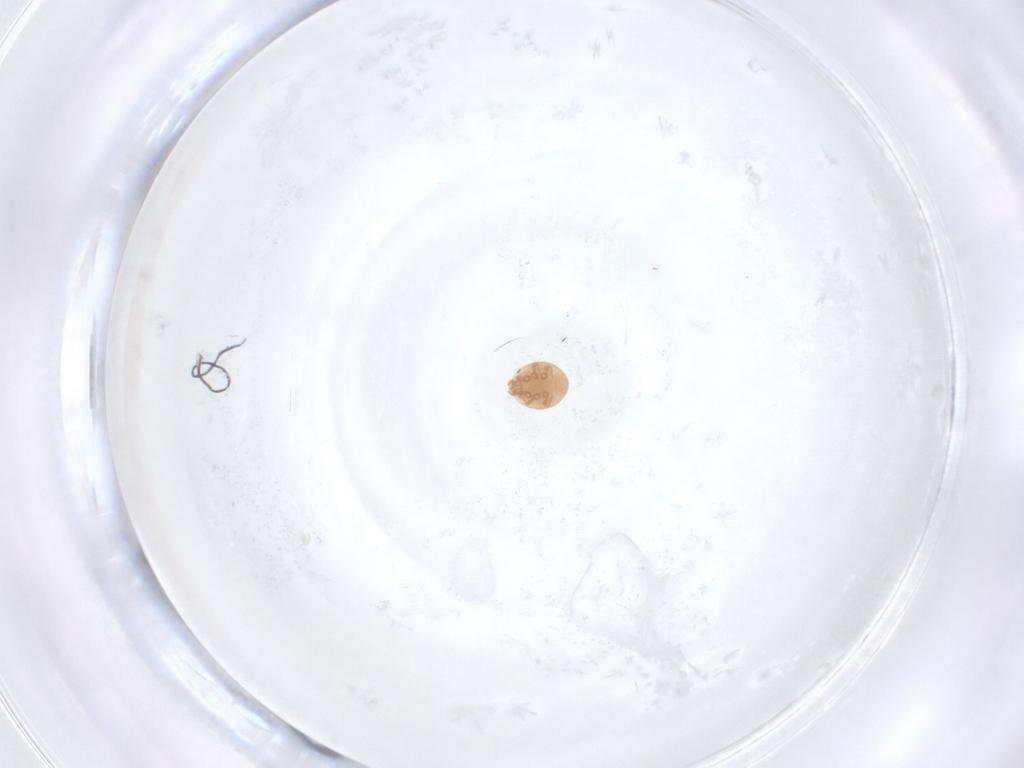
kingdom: Animalia
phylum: Arthropoda
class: Arachnida
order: Mesostigmata
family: Trematuridae
